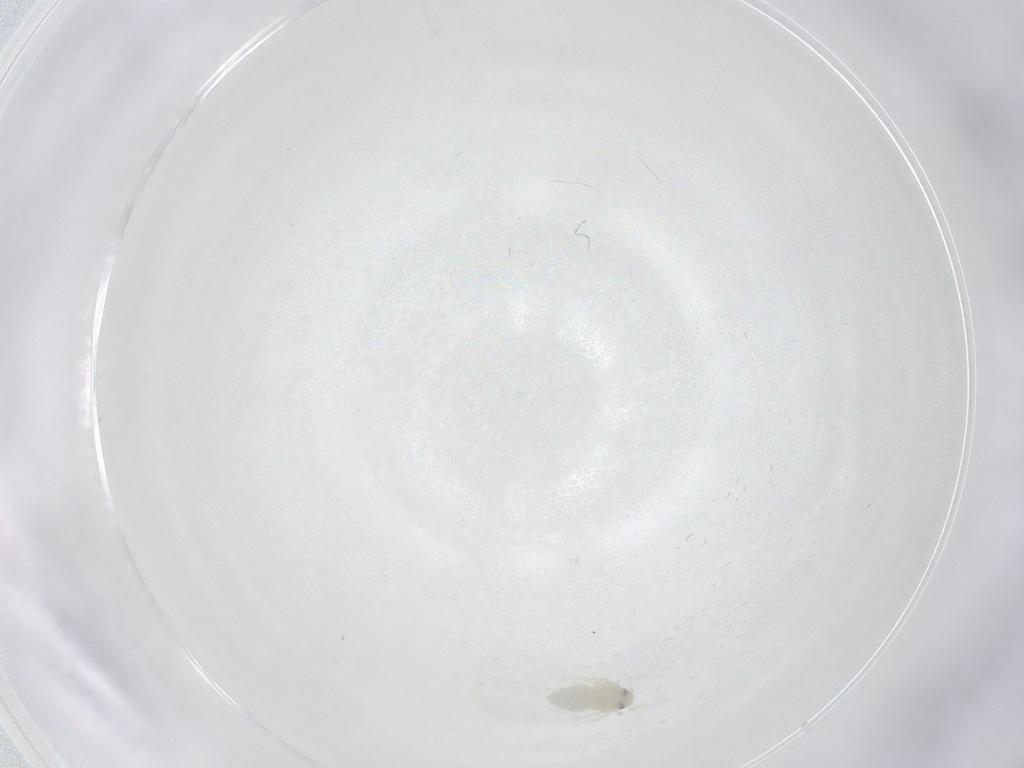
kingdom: Animalia
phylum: Arthropoda
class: Insecta
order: Hemiptera
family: Aleyrodidae
